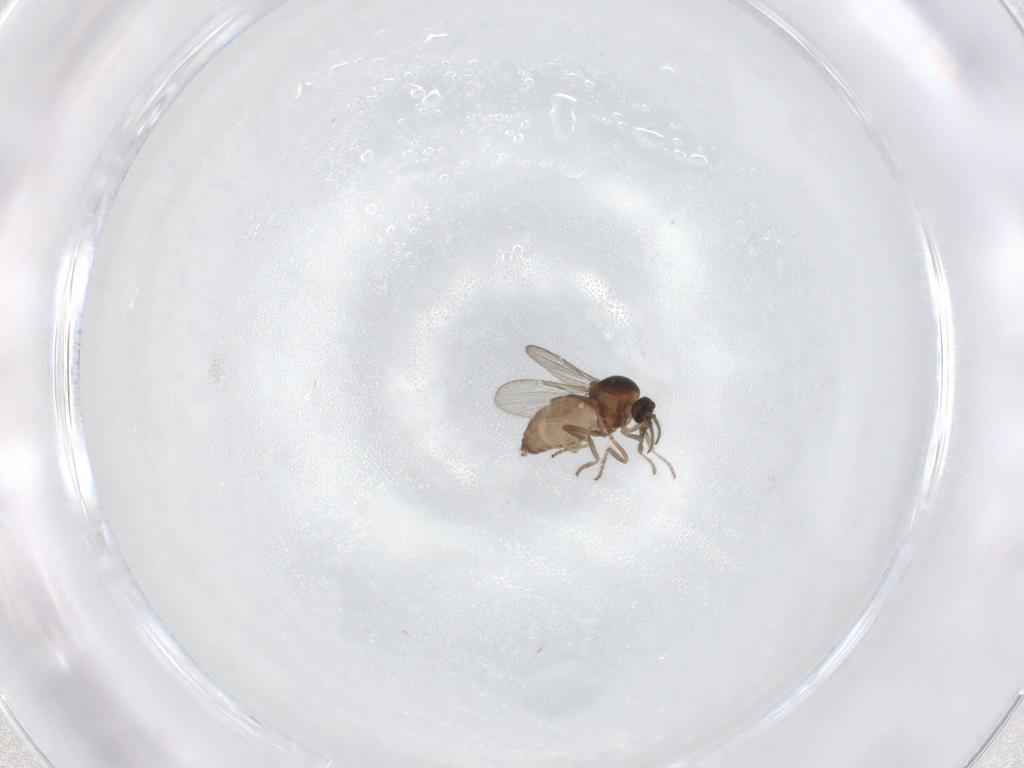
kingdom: Animalia
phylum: Arthropoda
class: Insecta
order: Diptera
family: Ceratopogonidae
